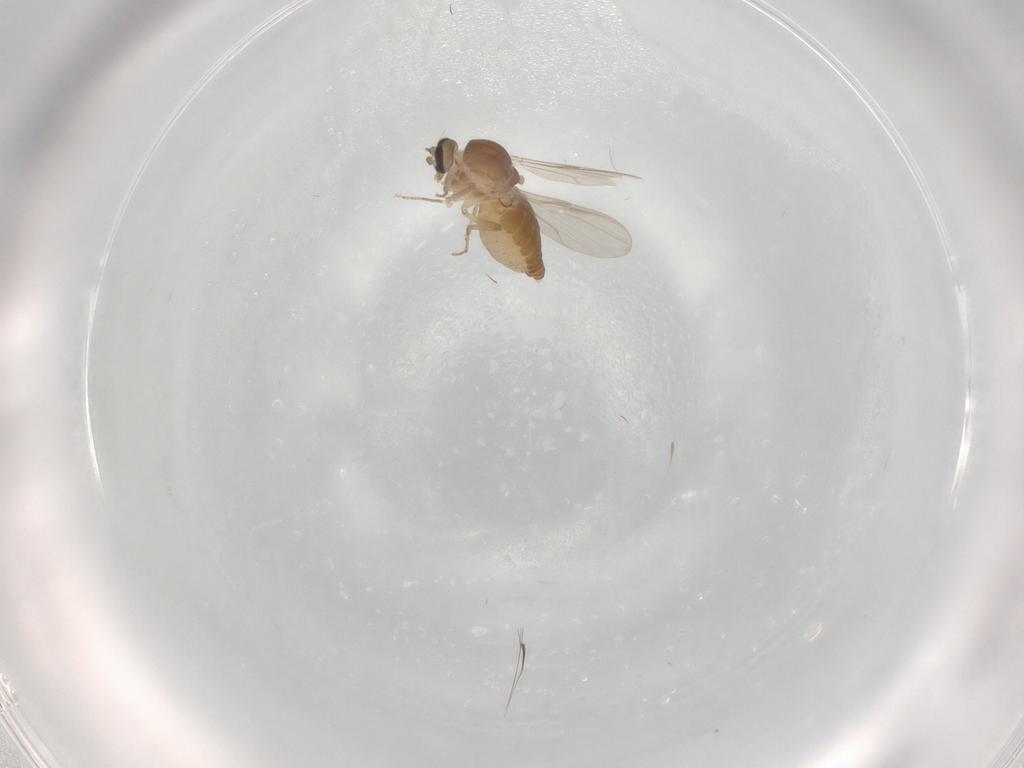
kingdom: Animalia
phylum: Arthropoda
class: Insecta
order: Diptera
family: Ceratopogonidae
